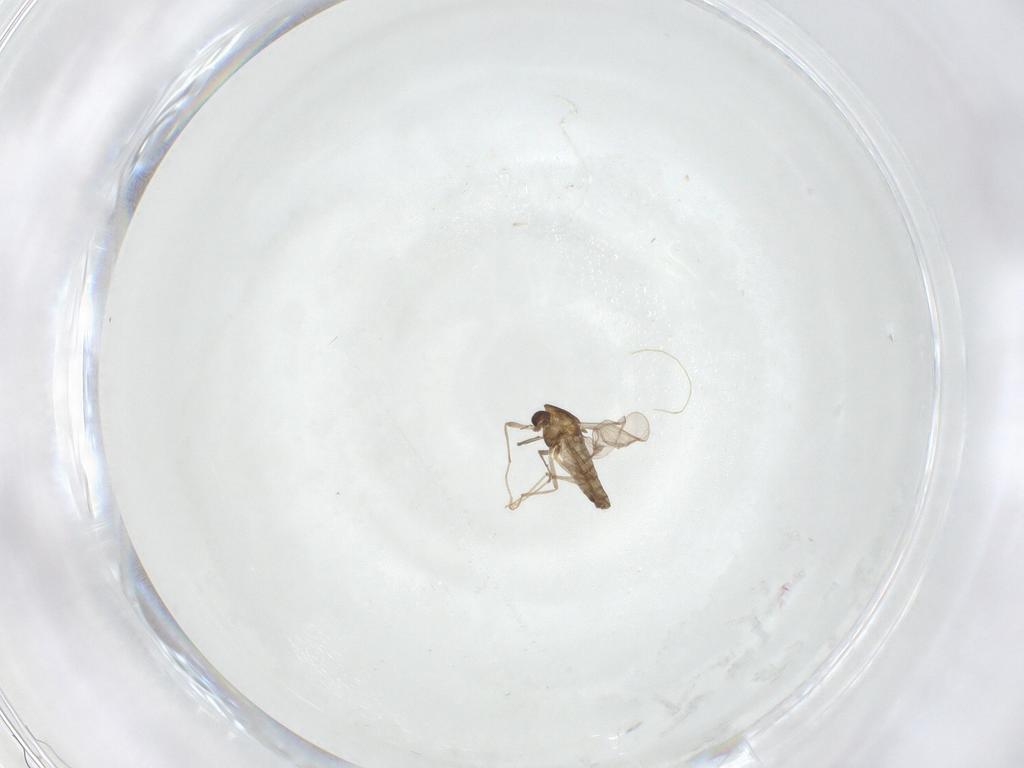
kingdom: Animalia
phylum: Arthropoda
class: Insecta
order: Diptera
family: Chironomidae
